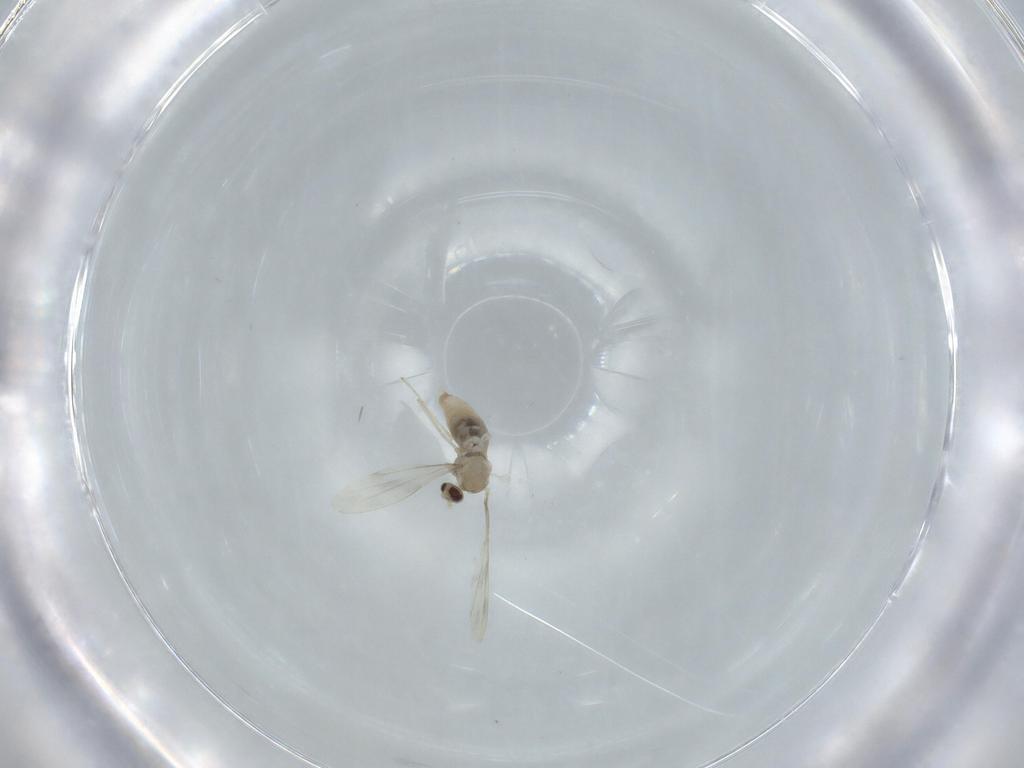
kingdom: Animalia
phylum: Arthropoda
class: Insecta
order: Diptera
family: Cecidomyiidae
